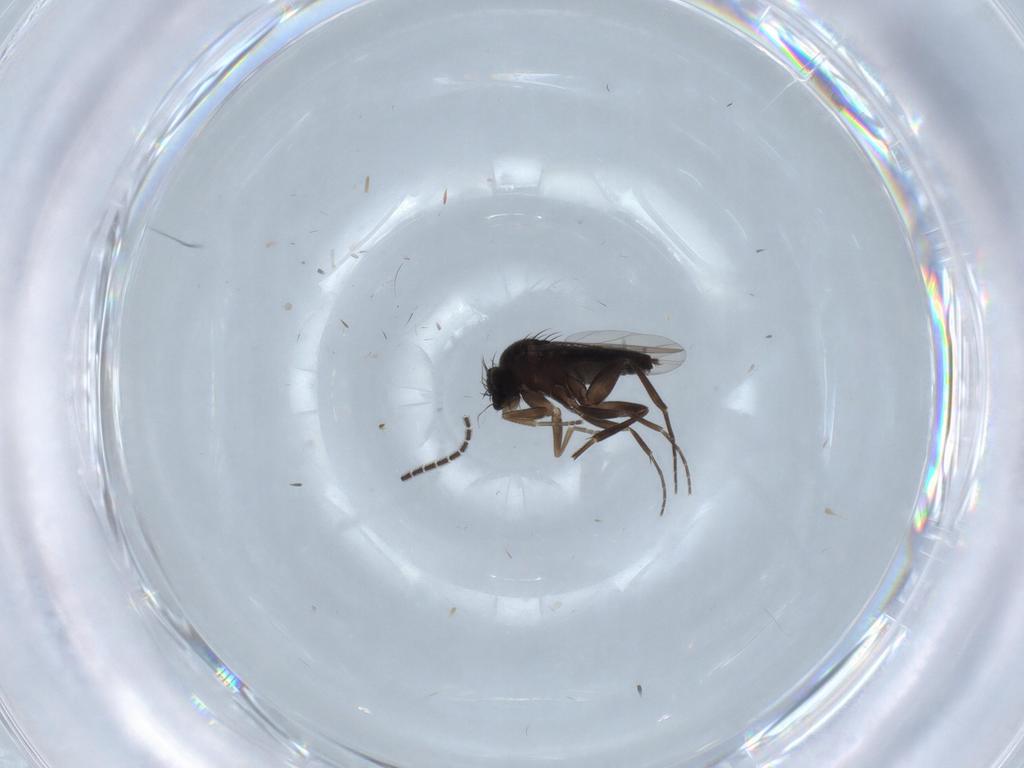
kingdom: Animalia
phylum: Arthropoda
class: Insecta
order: Diptera
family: Phoridae
